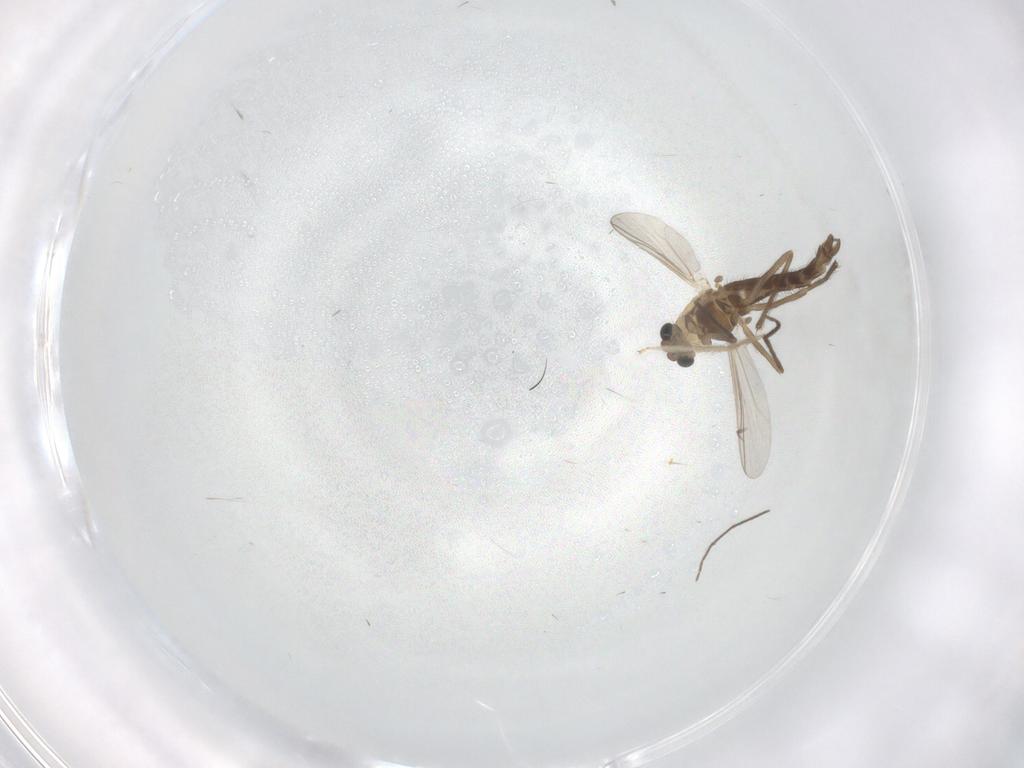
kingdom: Animalia
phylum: Arthropoda
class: Insecta
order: Diptera
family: Chironomidae
